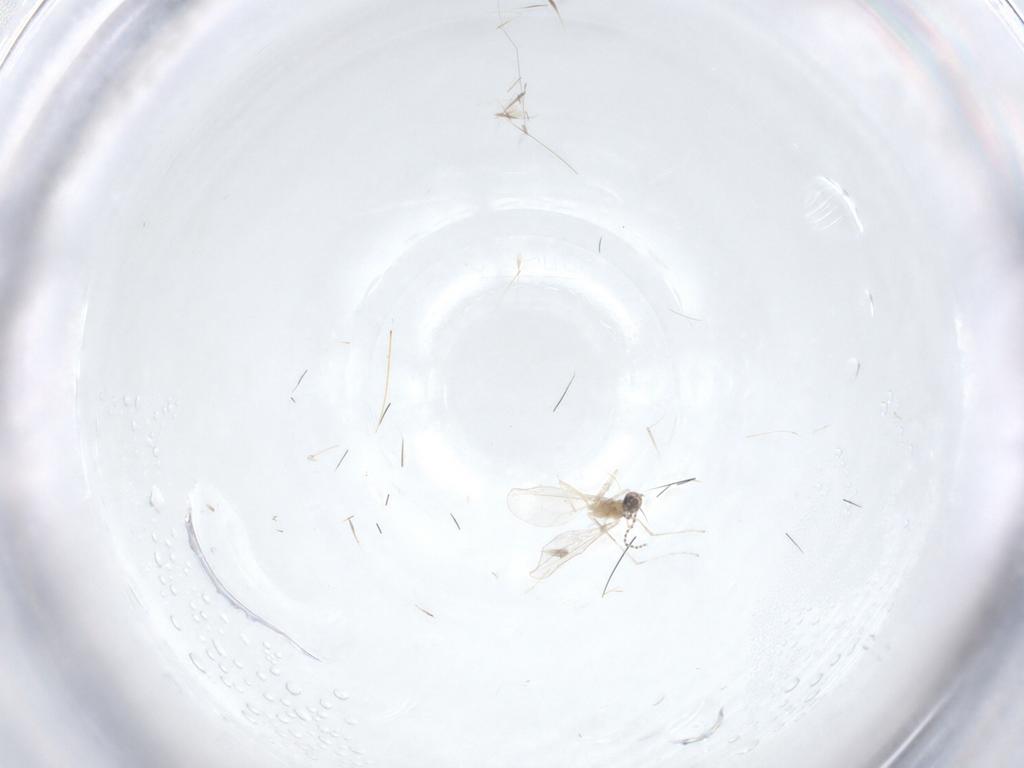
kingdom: Animalia
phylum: Arthropoda
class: Insecta
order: Diptera
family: Cecidomyiidae
